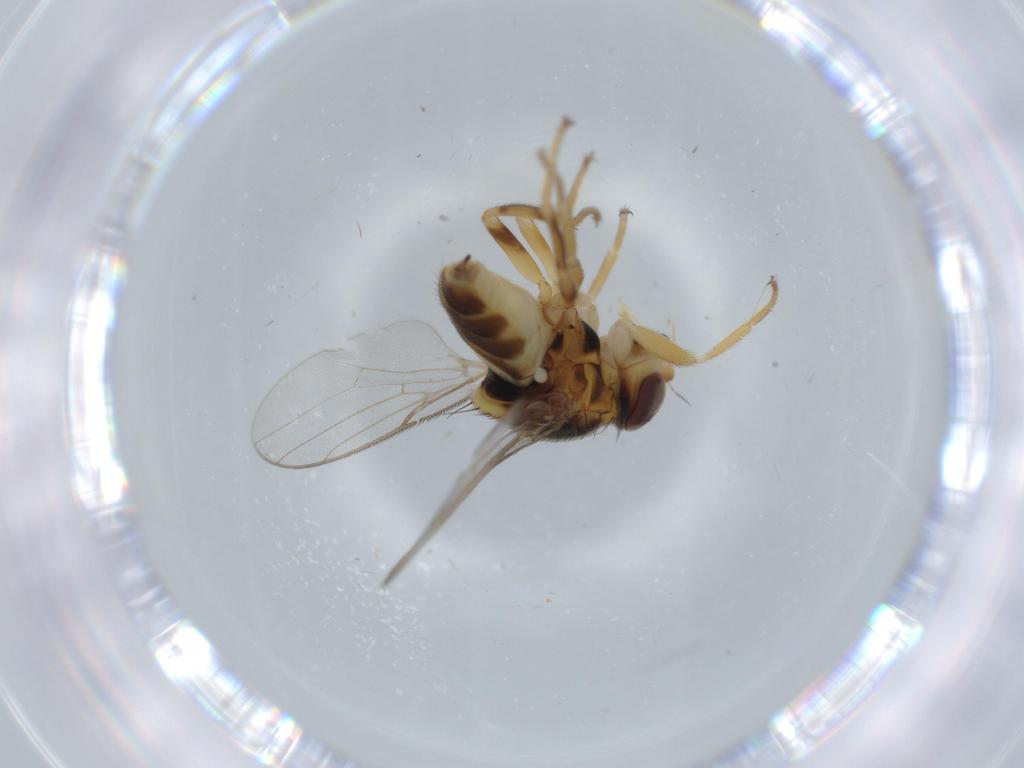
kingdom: Animalia
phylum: Arthropoda
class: Insecta
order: Diptera
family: Chloropidae
